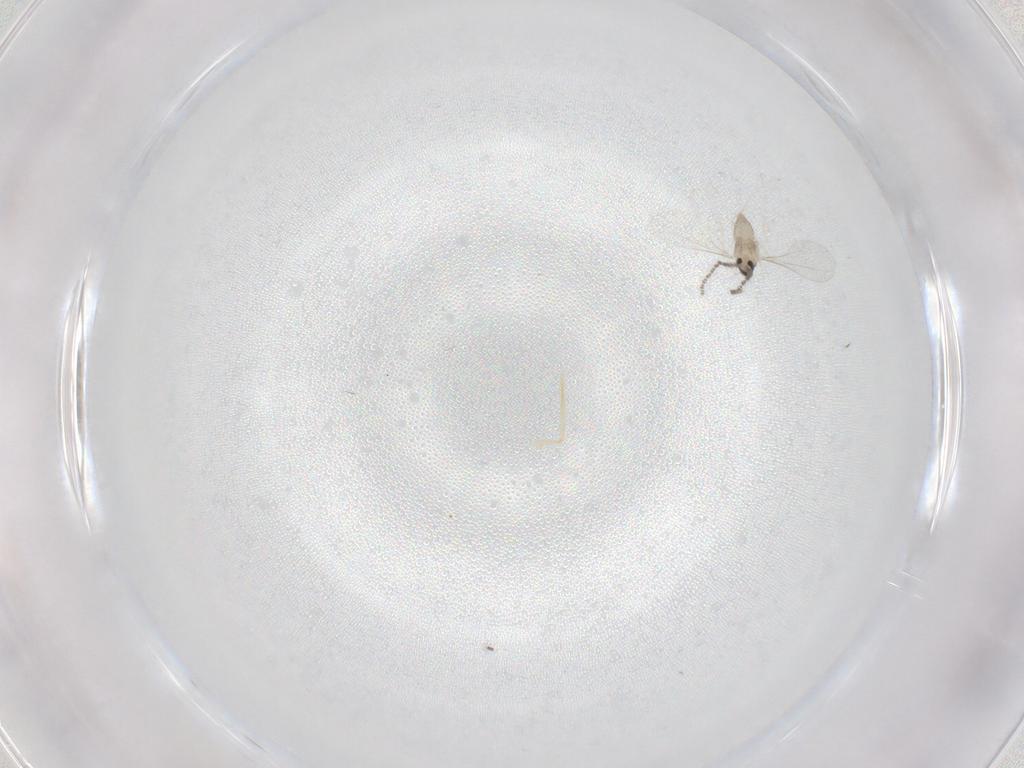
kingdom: Animalia
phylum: Arthropoda
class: Insecta
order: Diptera
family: Cecidomyiidae
